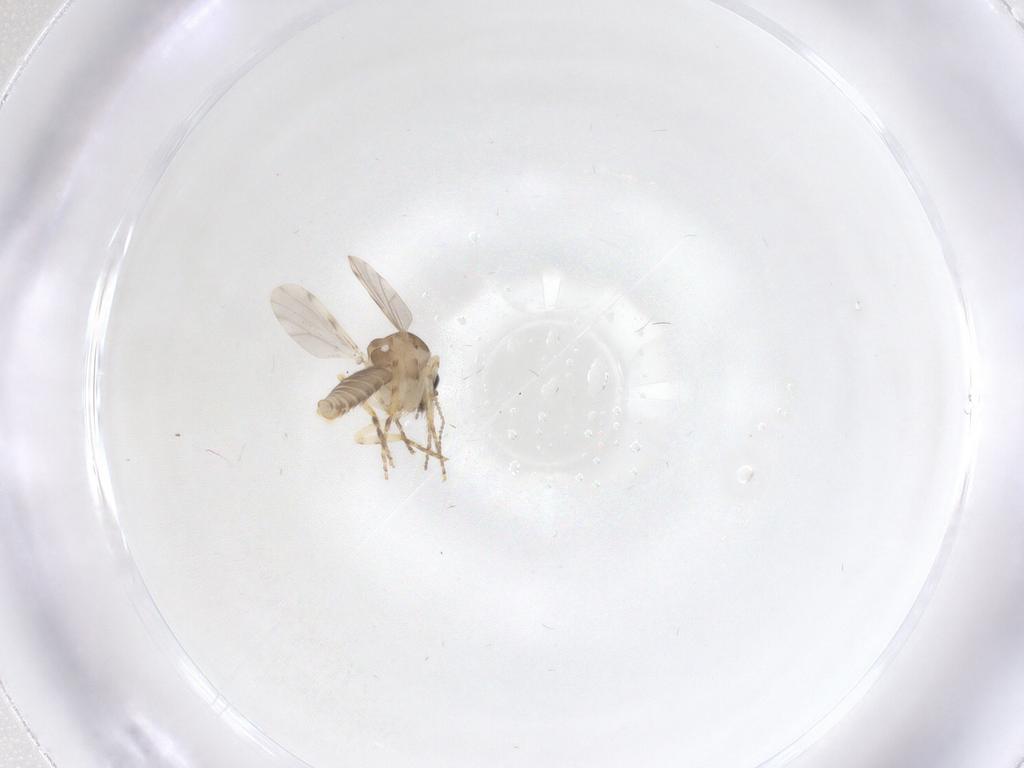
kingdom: Animalia
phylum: Arthropoda
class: Insecta
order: Diptera
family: Ceratopogonidae
